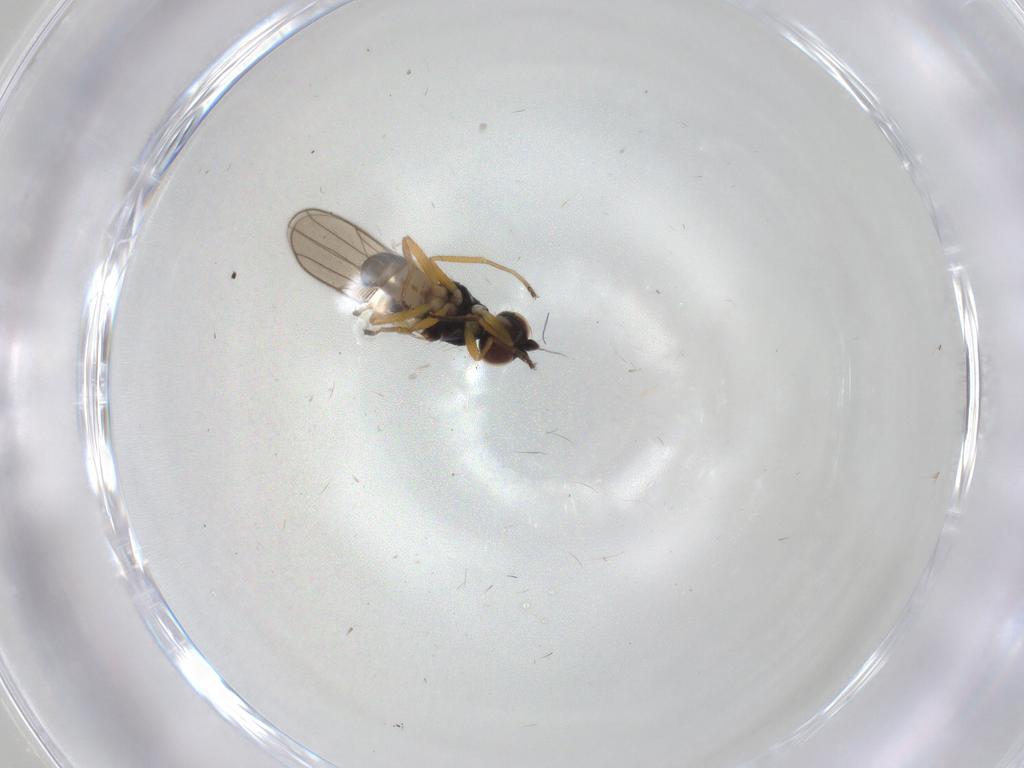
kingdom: Animalia
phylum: Arthropoda
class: Insecta
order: Diptera
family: Chloropidae
